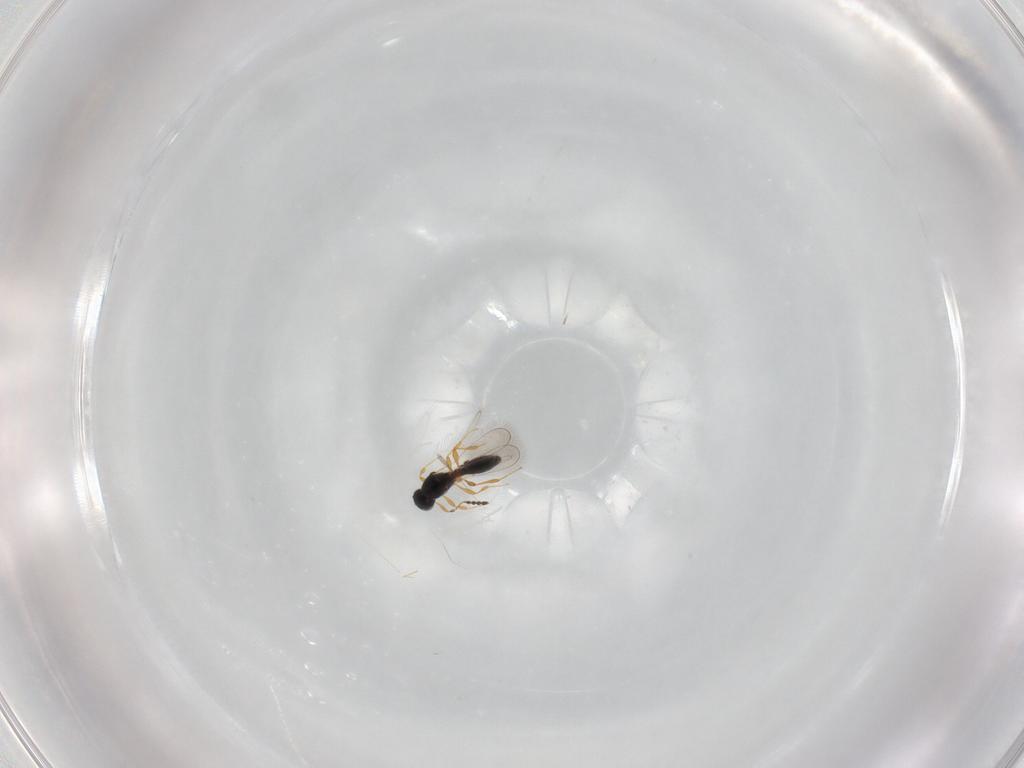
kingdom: Animalia
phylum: Arthropoda
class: Insecta
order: Hymenoptera
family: Platygastridae
